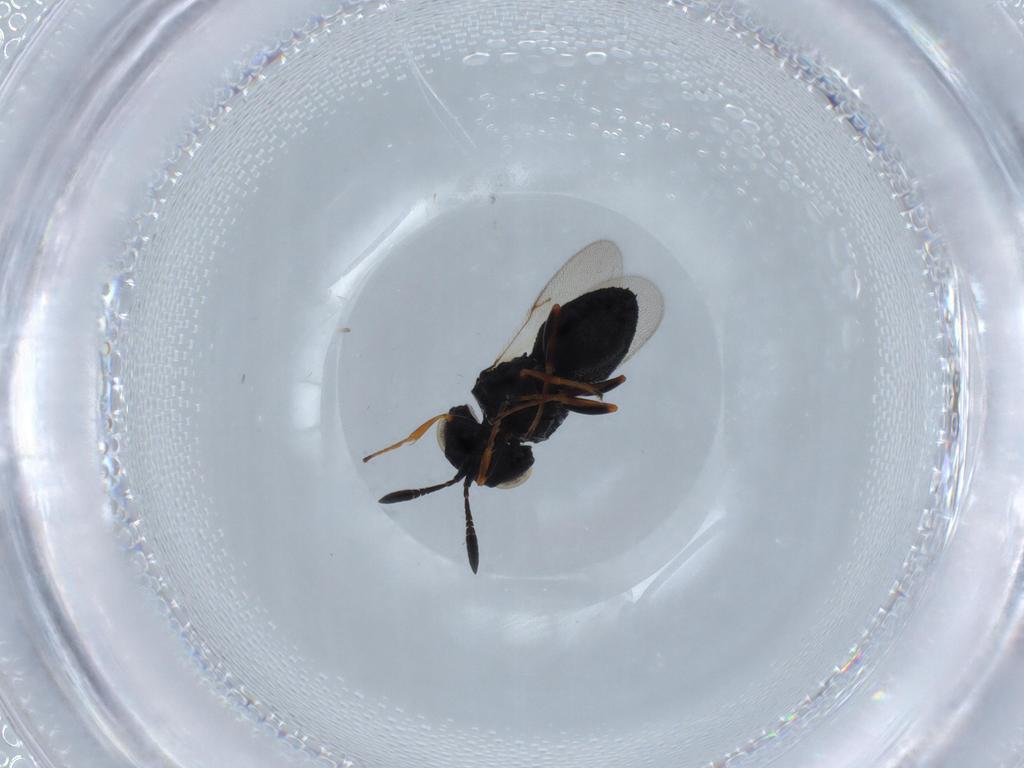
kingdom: Animalia
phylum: Arthropoda
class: Insecta
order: Hymenoptera
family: Scelionidae
